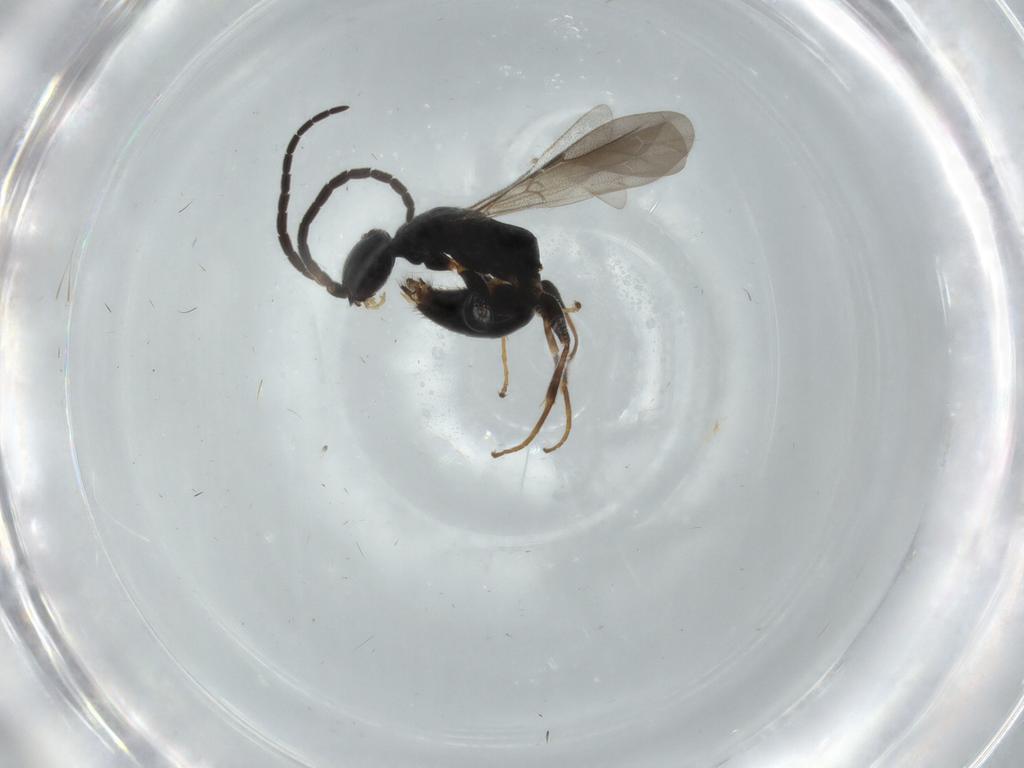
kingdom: Animalia
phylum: Arthropoda
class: Insecta
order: Hymenoptera
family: Bethylidae
